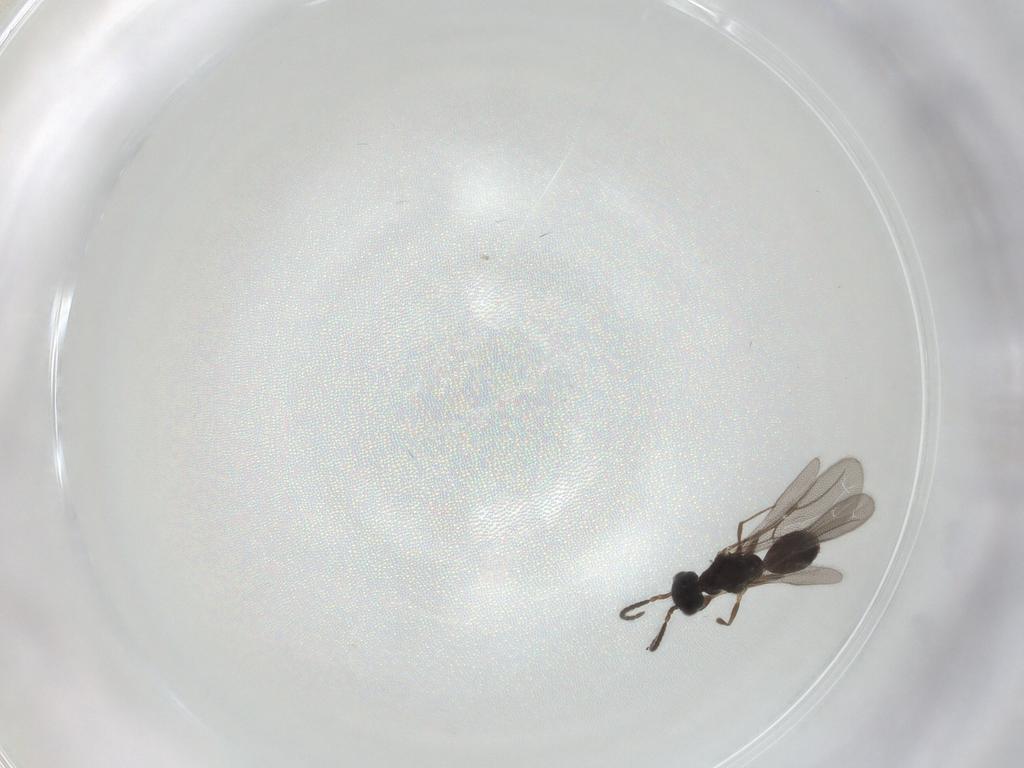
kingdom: Animalia
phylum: Arthropoda
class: Insecta
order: Hymenoptera
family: Bethylidae
